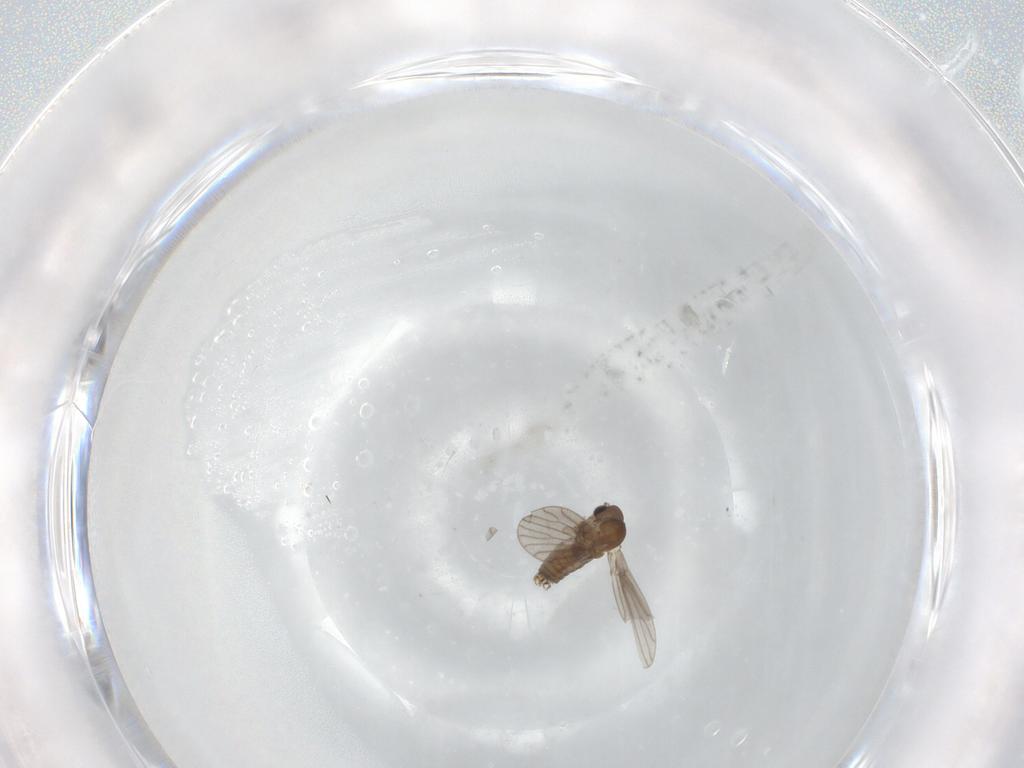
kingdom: Animalia
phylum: Arthropoda
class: Insecta
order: Diptera
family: Psychodidae
